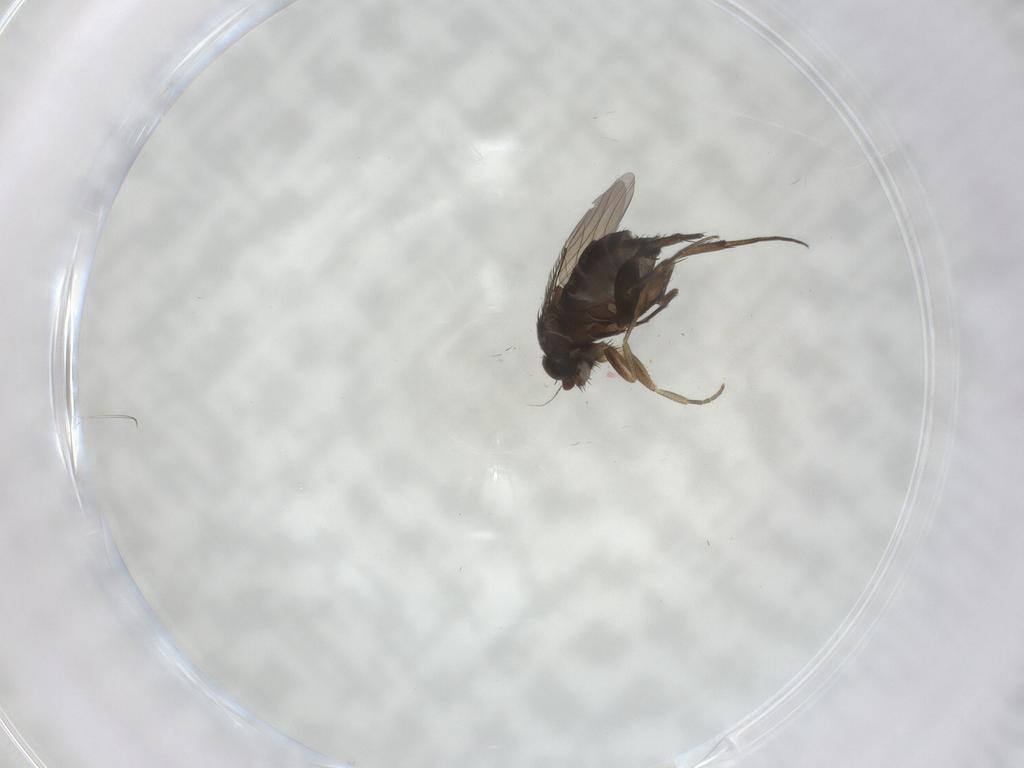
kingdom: Animalia
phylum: Arthropoda
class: Insecta
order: Diptera
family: Phoridae
